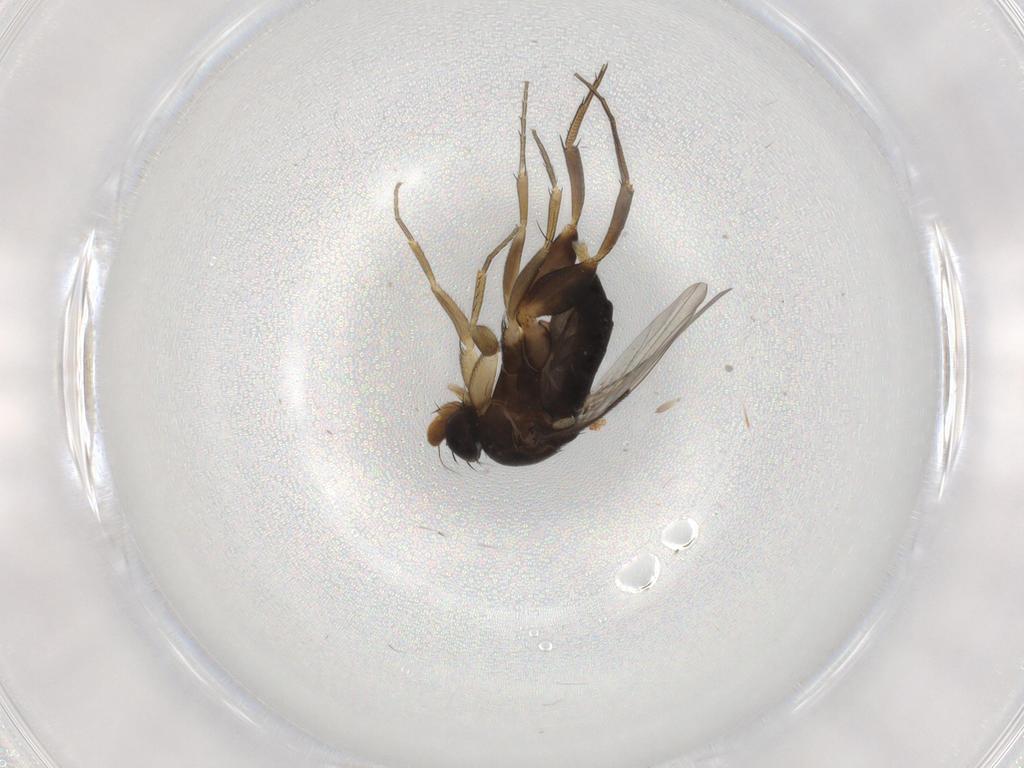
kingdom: Animalia
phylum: Arthropoda
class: Insecta
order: Diptera
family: Phoridae
